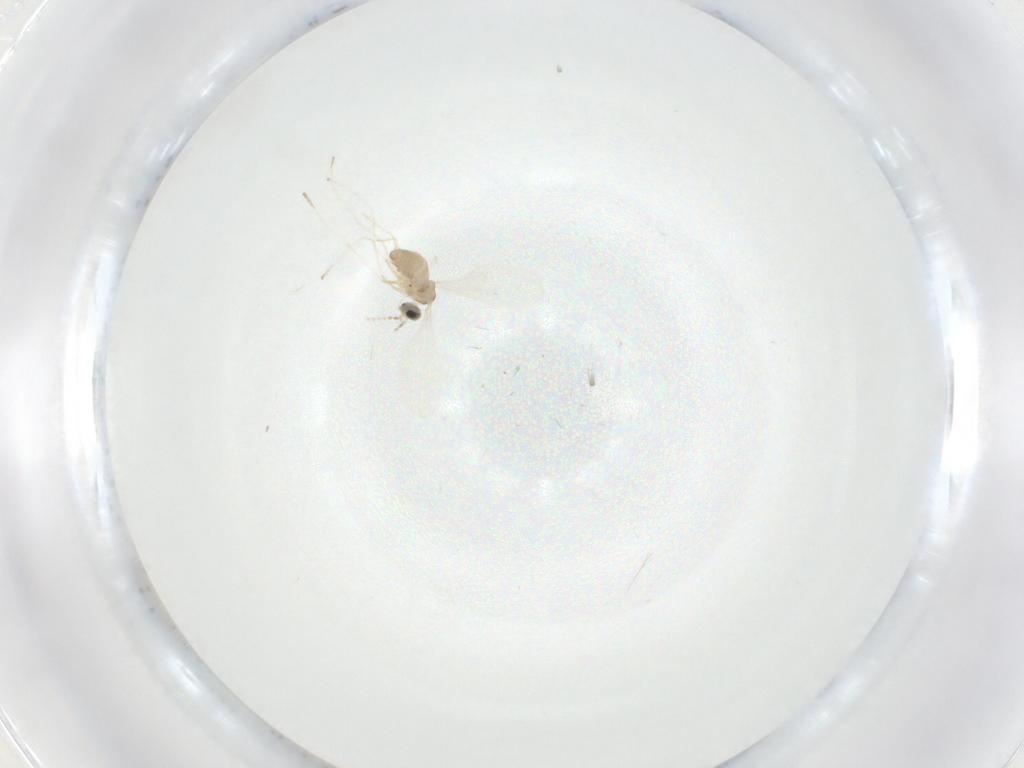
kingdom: Animalia
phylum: Arthropoda
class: Insecta
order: Diptera
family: Cecidomyiidae
